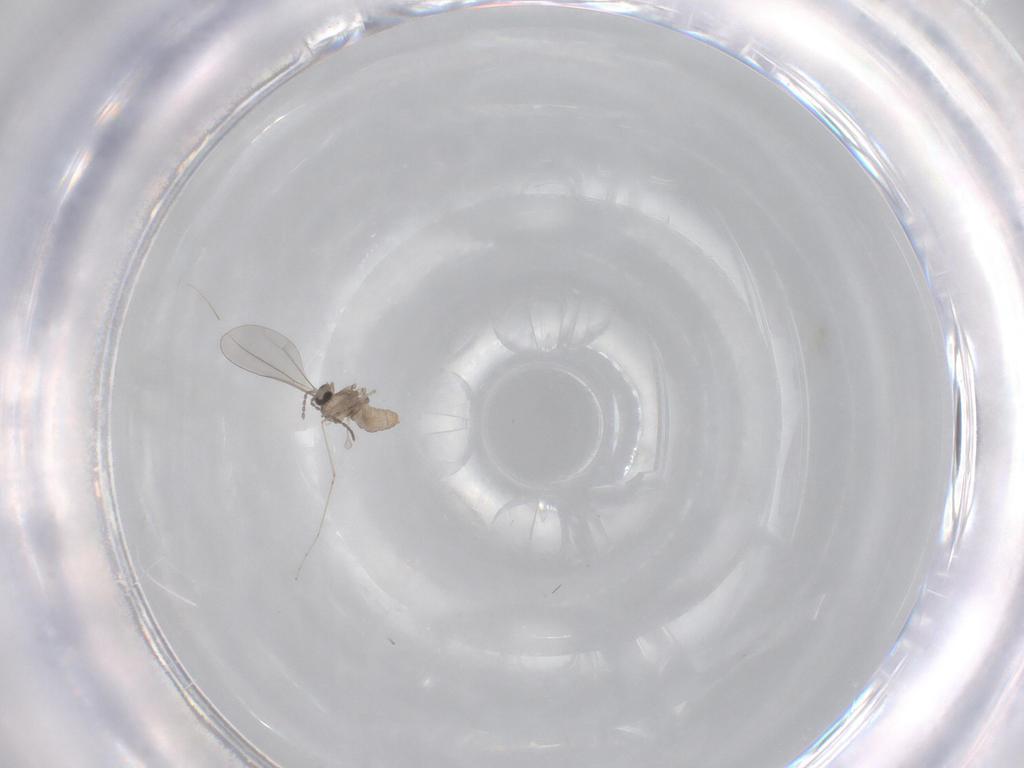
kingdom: Animalia
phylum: Arthropoda
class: Insecta
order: Diptera
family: Cecidomyiidae
